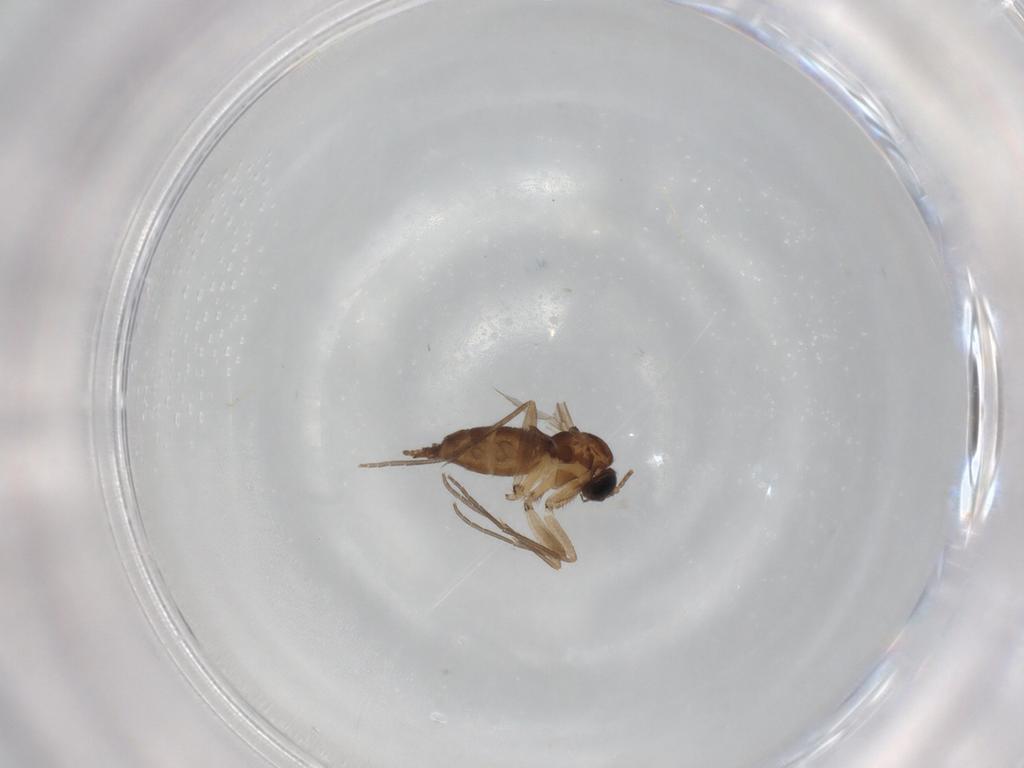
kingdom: Animalia
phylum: Arthropoda
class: Insecta
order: Diptera
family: Sciaridae
